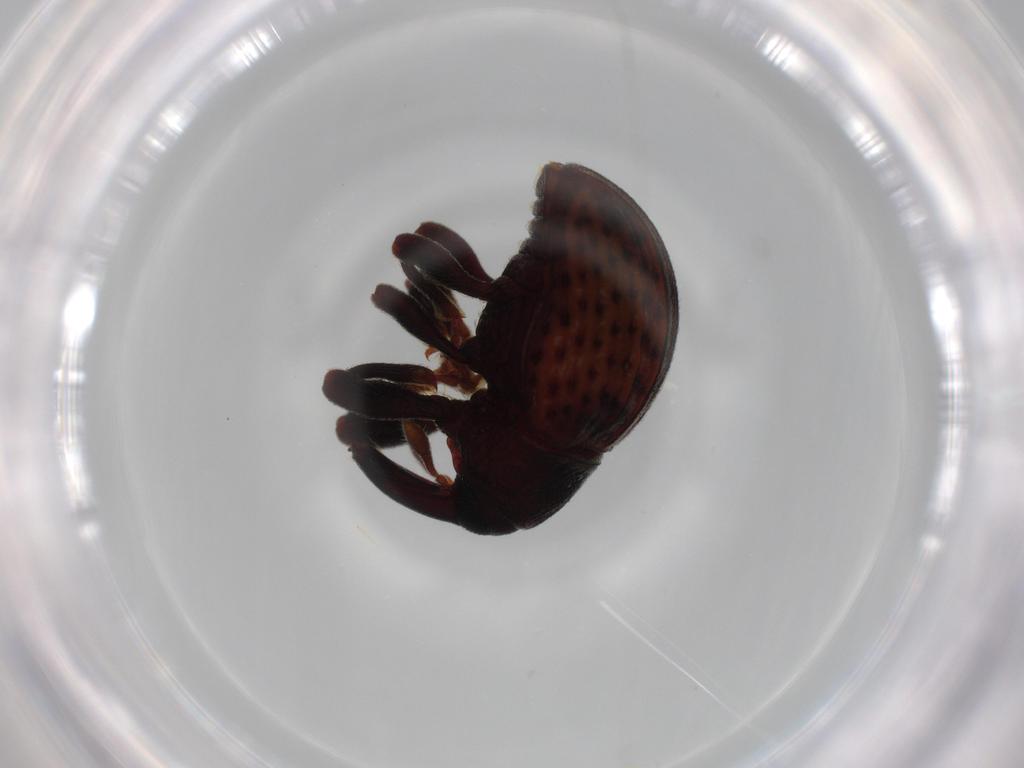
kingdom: Animalia
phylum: Arthropoda
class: Insecta
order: Coleoptera
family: Curculionidae
